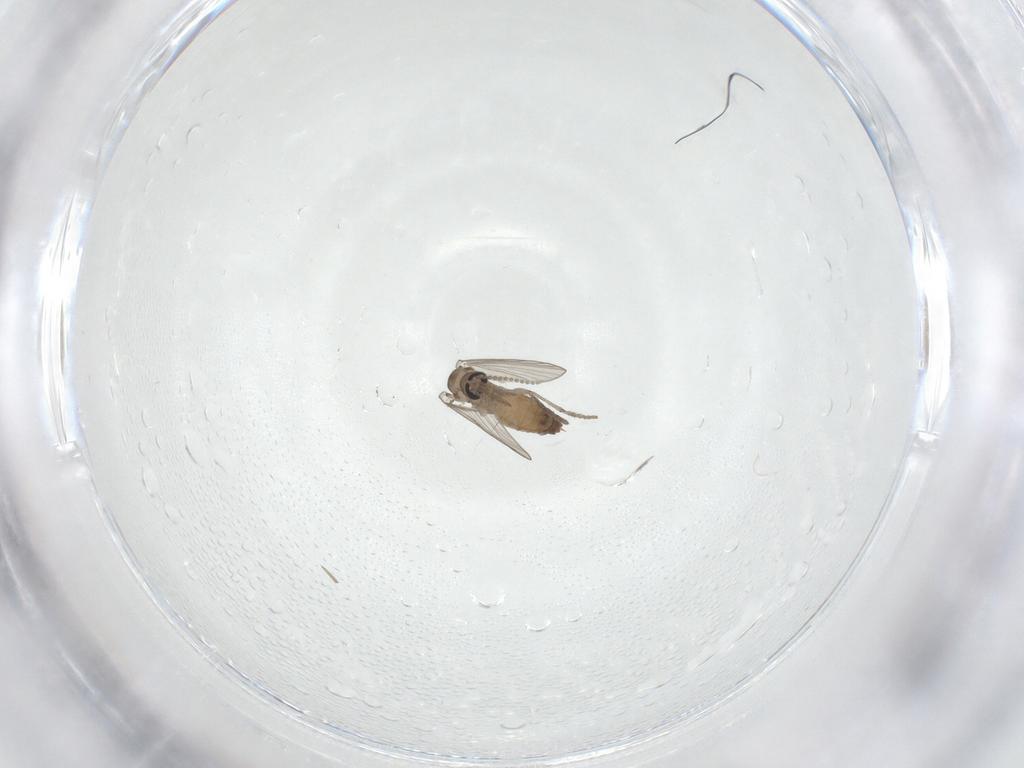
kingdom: Animalia
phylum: Arthropoda
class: Insecta
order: Diptera
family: Psychodidae
